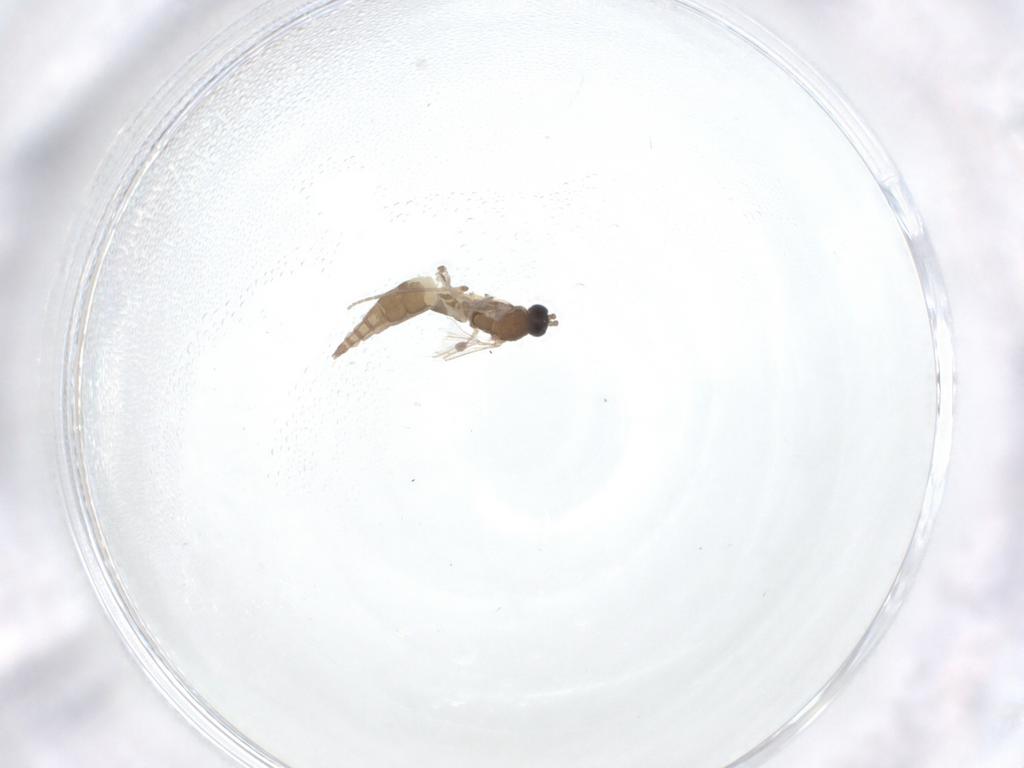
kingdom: Animalia
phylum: Arthropoda
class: Insecta
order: Diptera
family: Sciaridae
